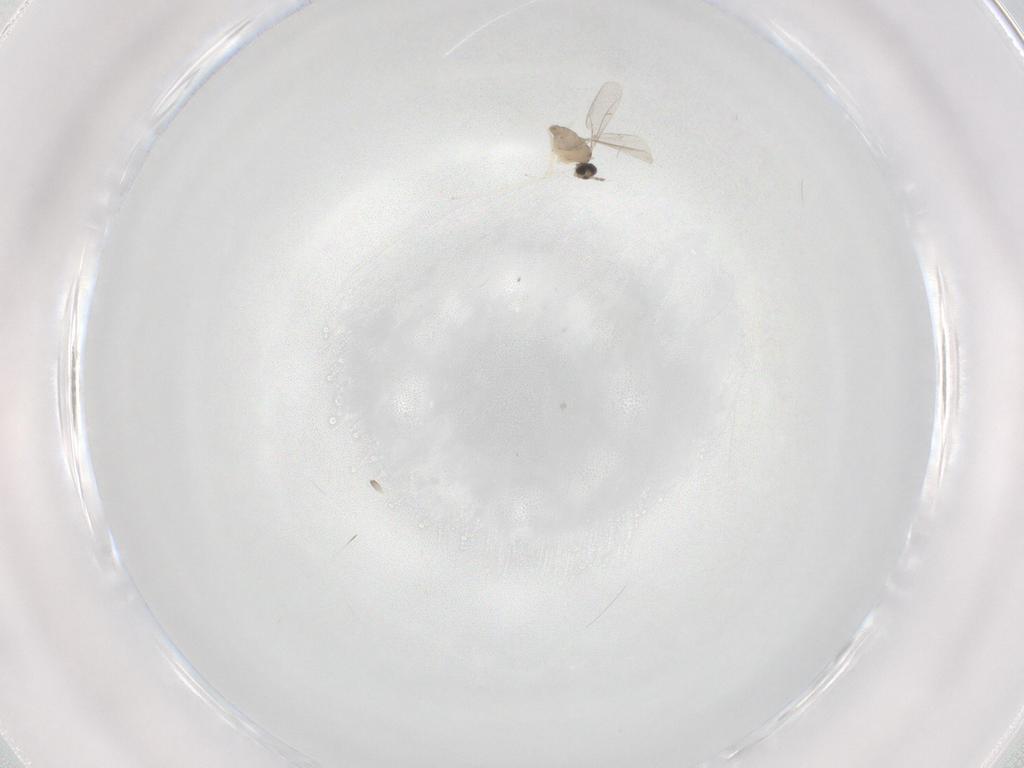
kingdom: Animalia
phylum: Arthropoda
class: Insecta
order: Diptera
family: Cecidomyiidae
